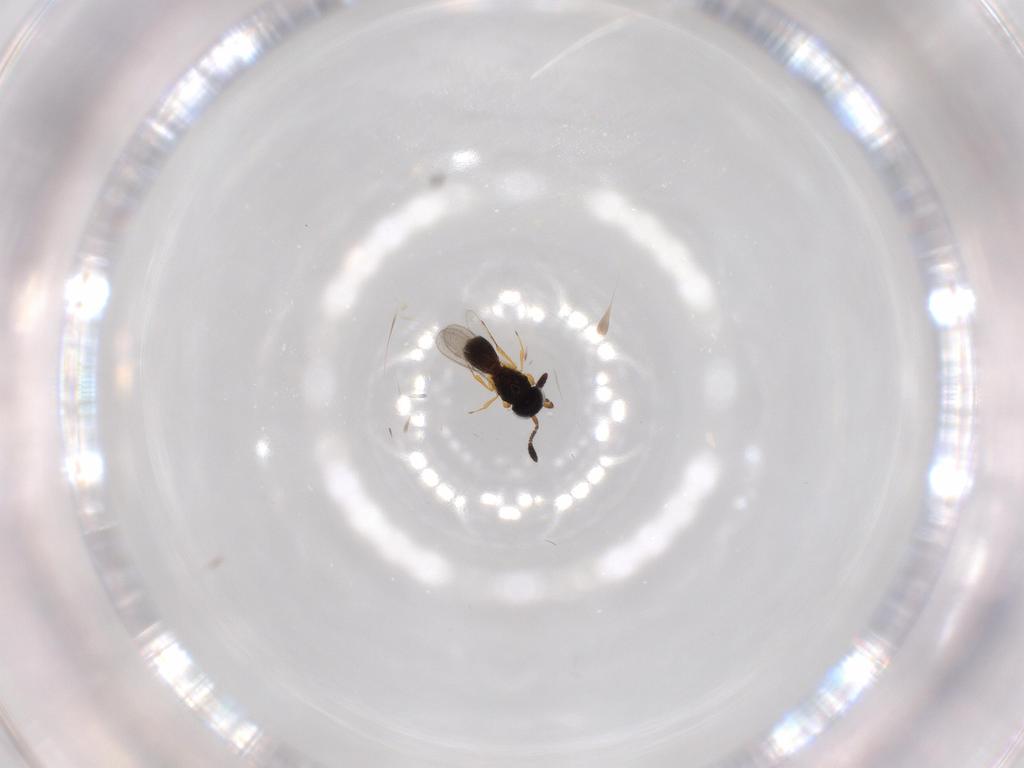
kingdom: Animalia
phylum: Arthropoda
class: Insecta
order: Hymenoptera
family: Scelionidae
